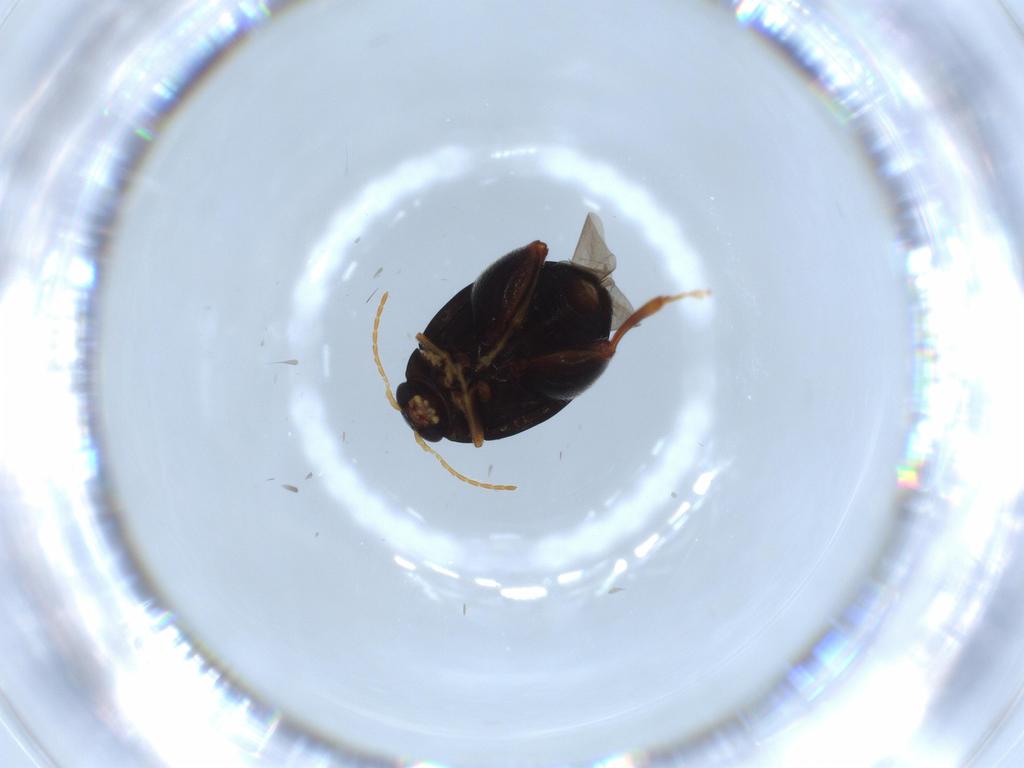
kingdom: Animalia
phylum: Arthropoda
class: Insecta
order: Coleoptera
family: Chrysomelidae
